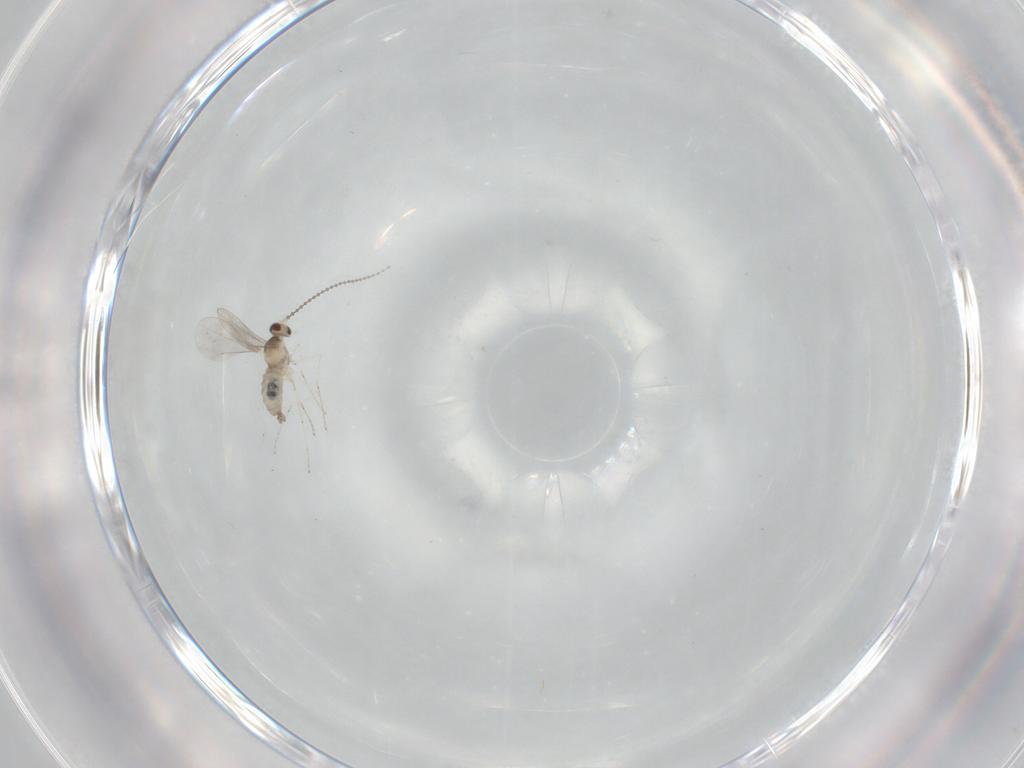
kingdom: Animalia
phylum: Arthropoda
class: Insecta
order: Diptera
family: Cecidomyiidae
